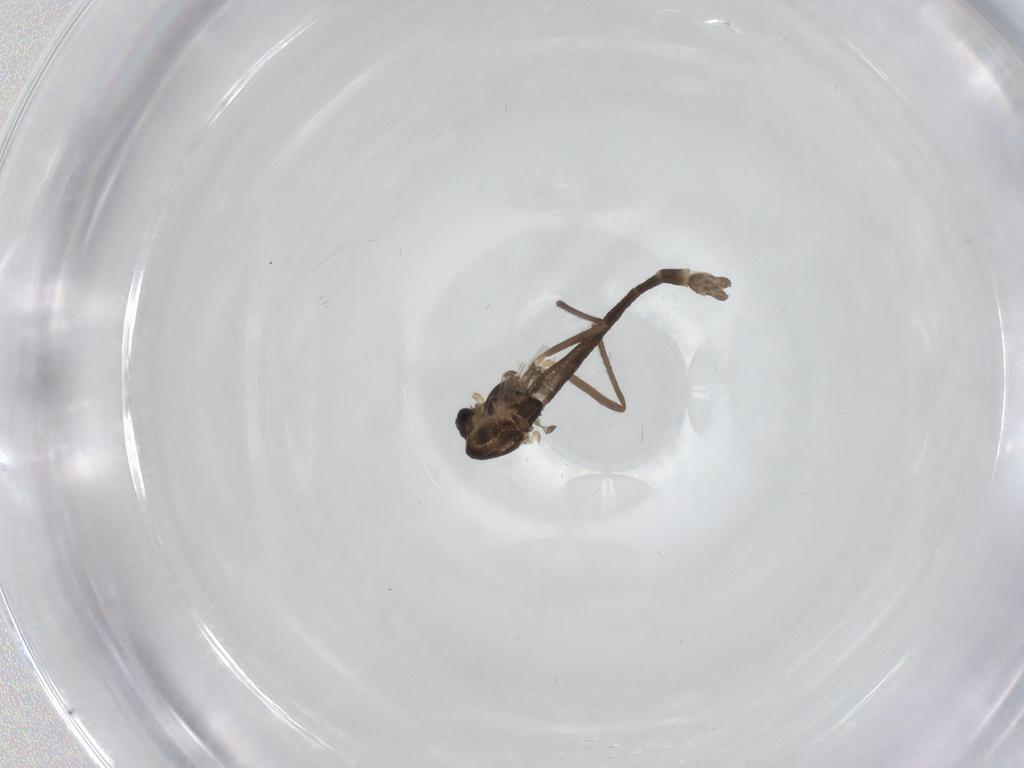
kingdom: Animalia
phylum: Arthropoda
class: Insecta
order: Diptera
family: Chironomidae
